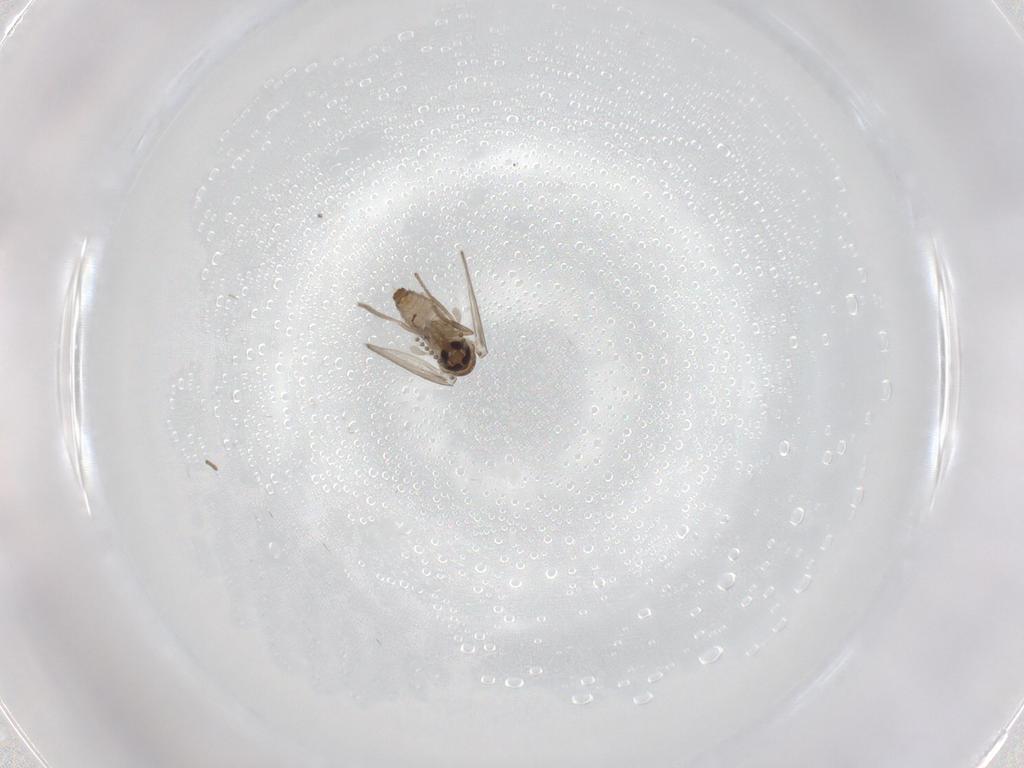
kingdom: Animalia
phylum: Arthropoda
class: Insecta
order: Diptera
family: Psychodidae
